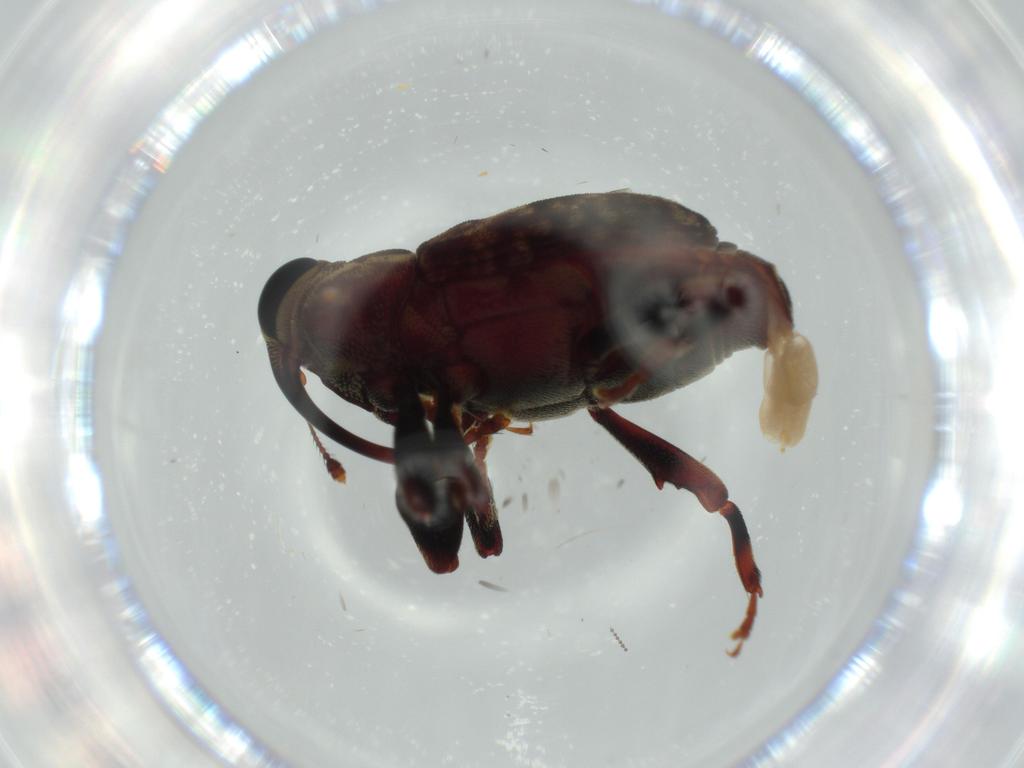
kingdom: Animalia
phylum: Arthropoda
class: Insecta
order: Coleoptera
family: Curculionidae
